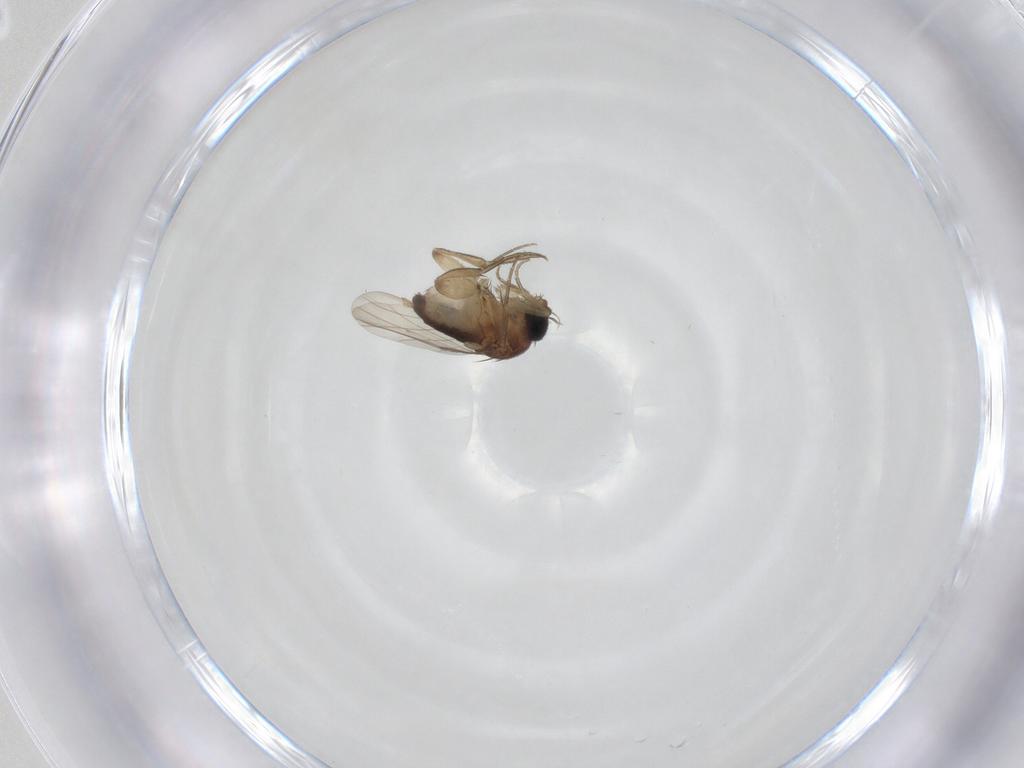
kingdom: Animalia
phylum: Arthropoda
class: Insecta
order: Diptera
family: Phoridae
